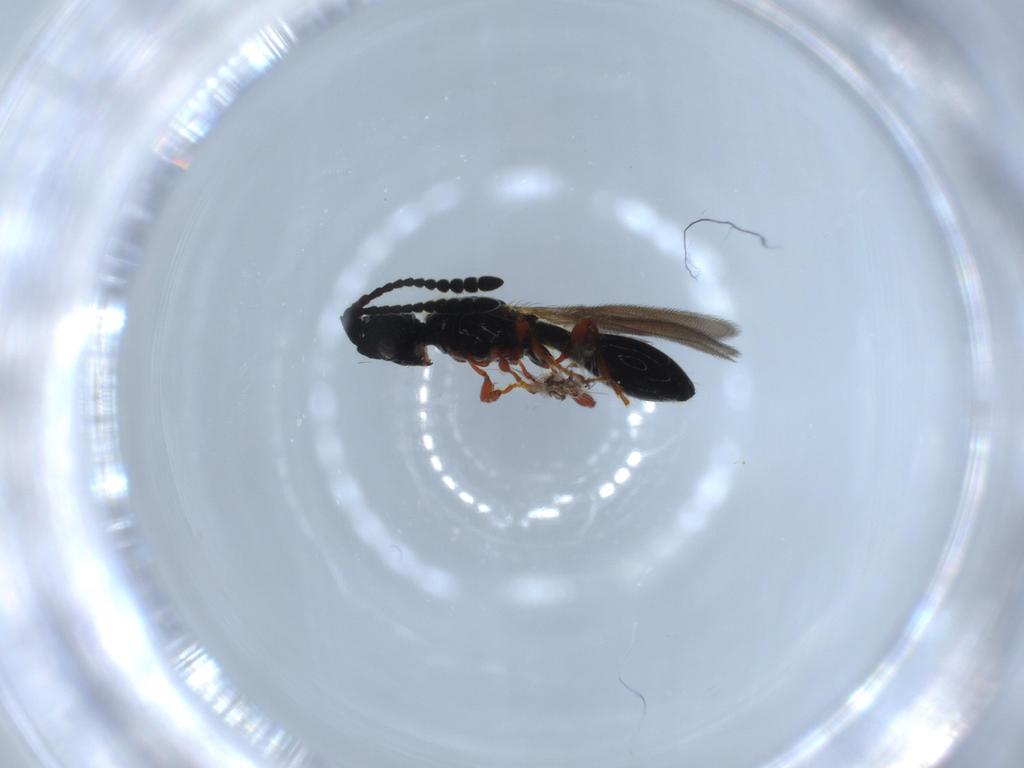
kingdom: Animalia
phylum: Arthropoda
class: Insecta
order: Hymenoptera
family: Diapriidae
